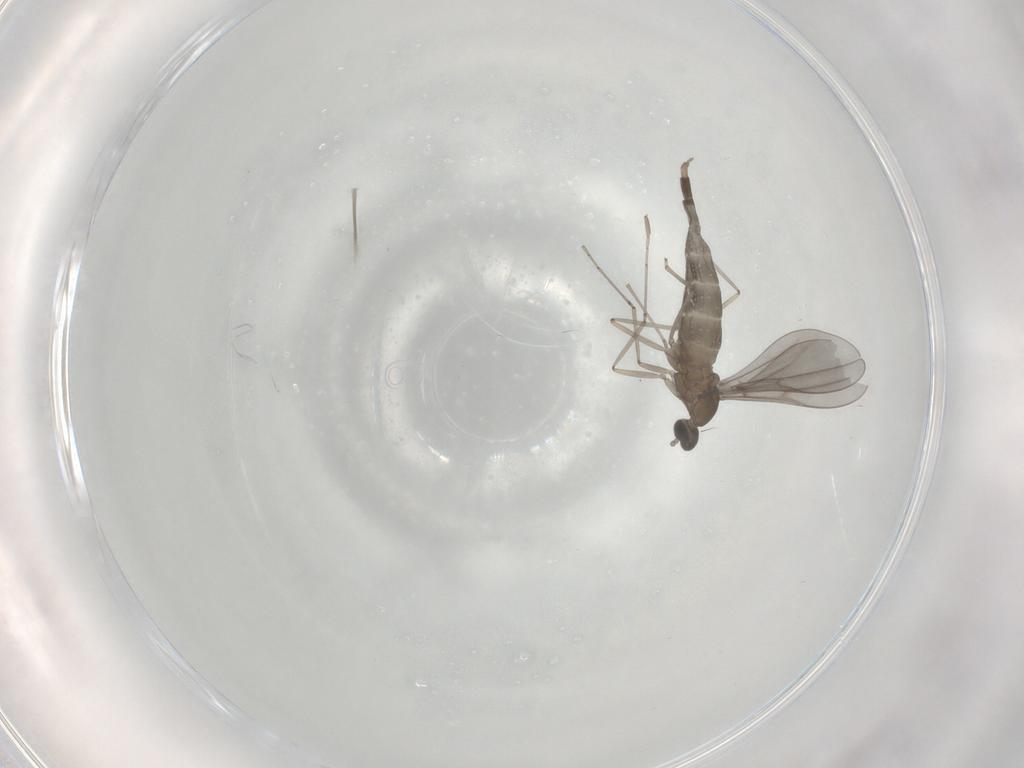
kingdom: Animalia
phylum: Arthropoda
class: Insecta
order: Diptera
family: Cecidomyiidae
